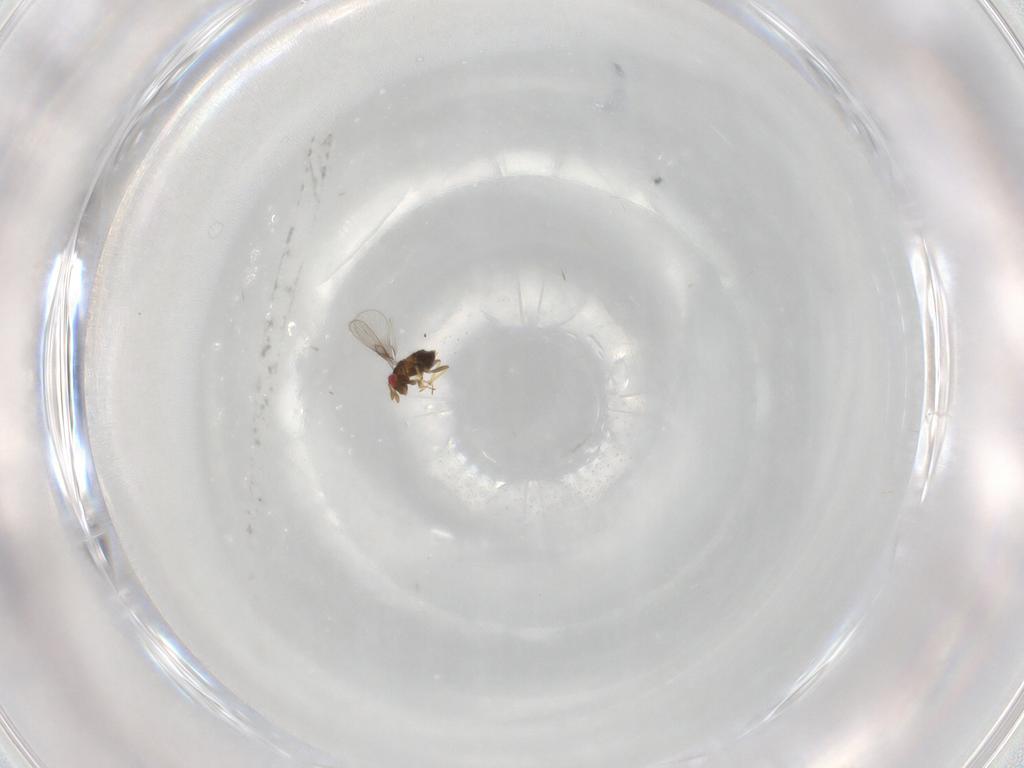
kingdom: Animalia
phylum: Arthropoda
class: Insecta
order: Hymenoptera
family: Trichogrammatidae
